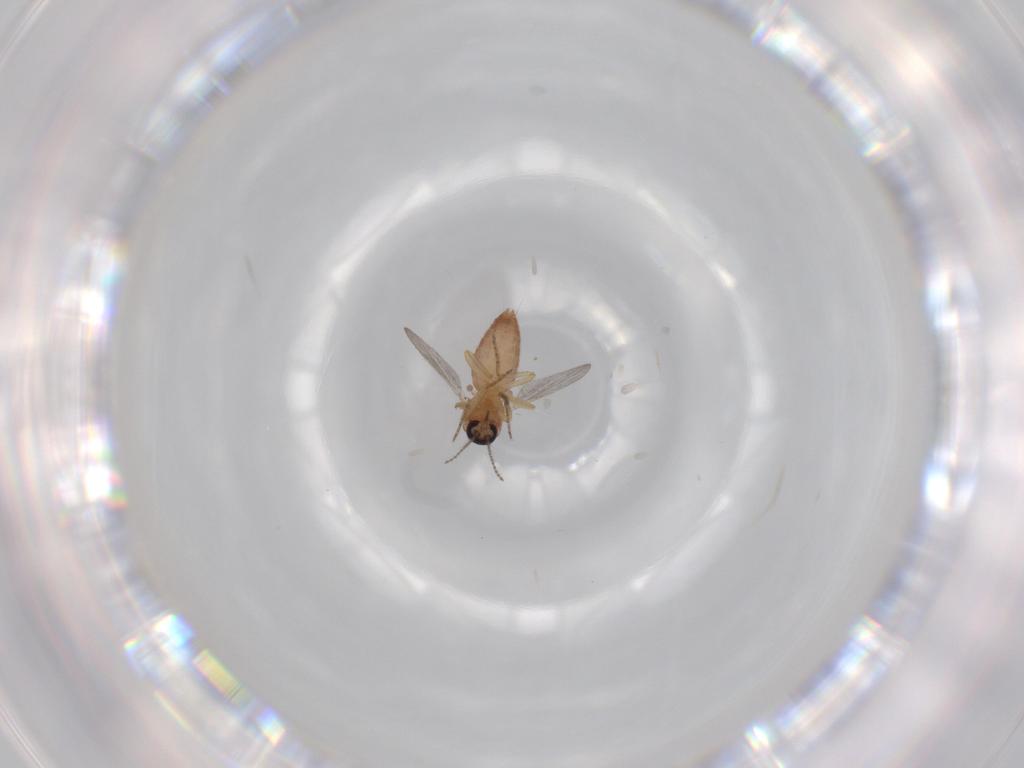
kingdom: Animalia
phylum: Arthropoda
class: Insecta
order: Diptera
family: Ceratopogonidae
